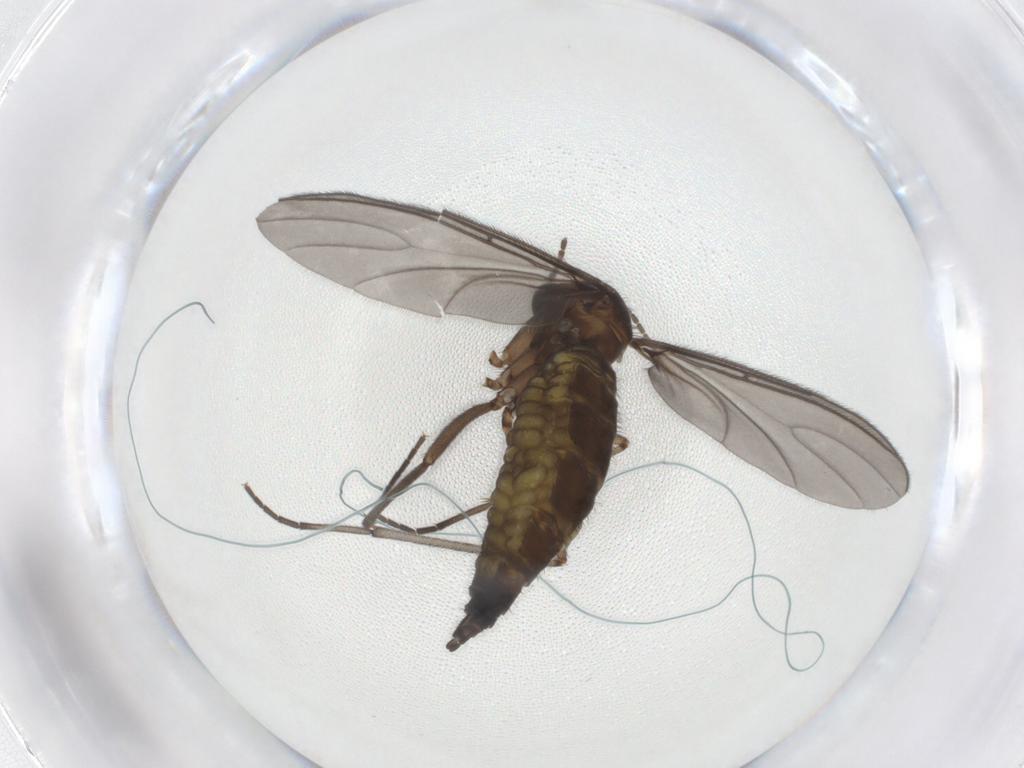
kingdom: Animalia
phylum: Arthropoda
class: Insecta
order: Diptera
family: Sciaridae
